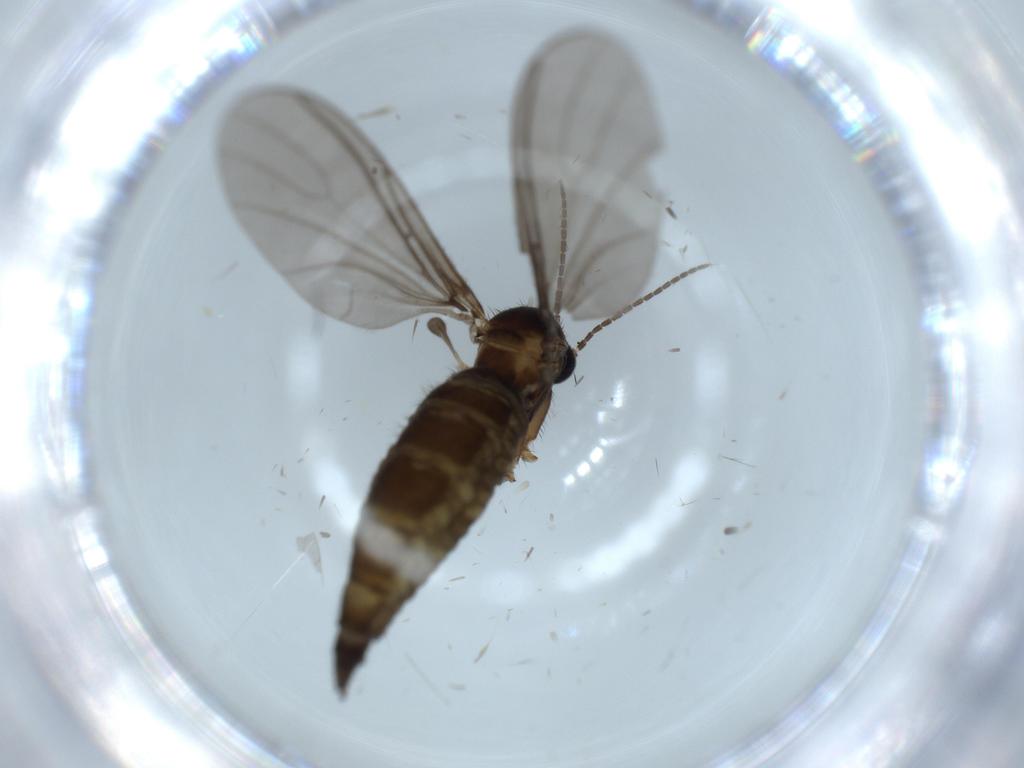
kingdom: Animalia
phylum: Arthropoda
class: Insecta
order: Diptera
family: Sciaridae
